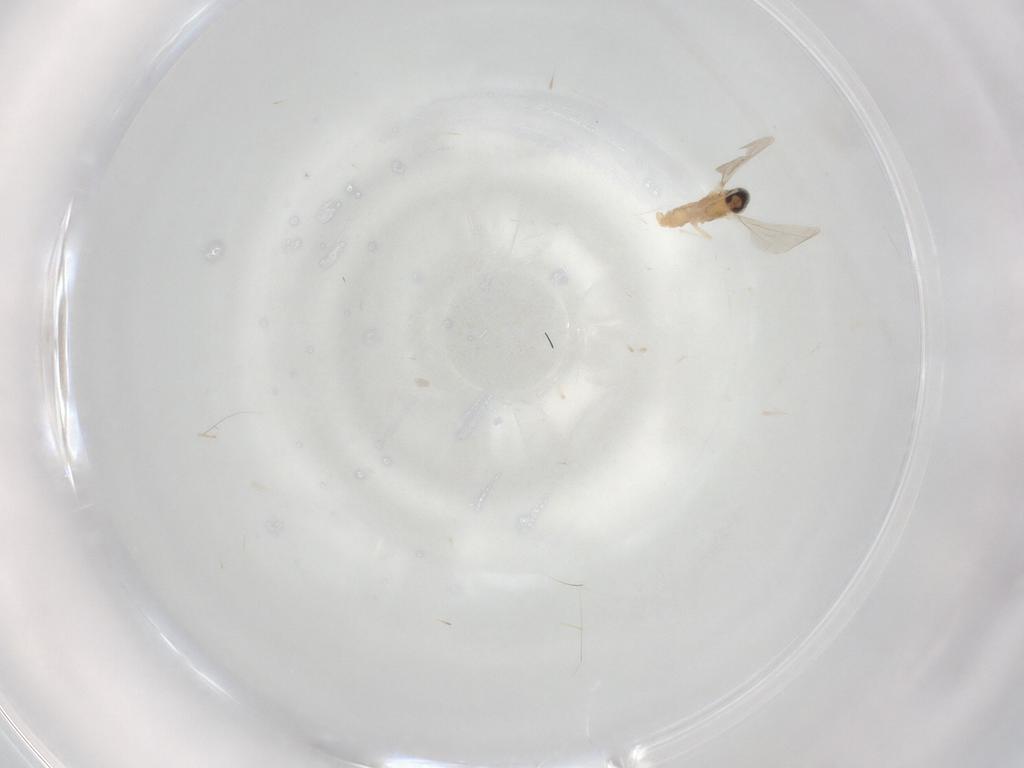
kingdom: Animalia
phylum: Arthropoda
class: Insecta
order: Diptera
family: Cecidomyiidae
